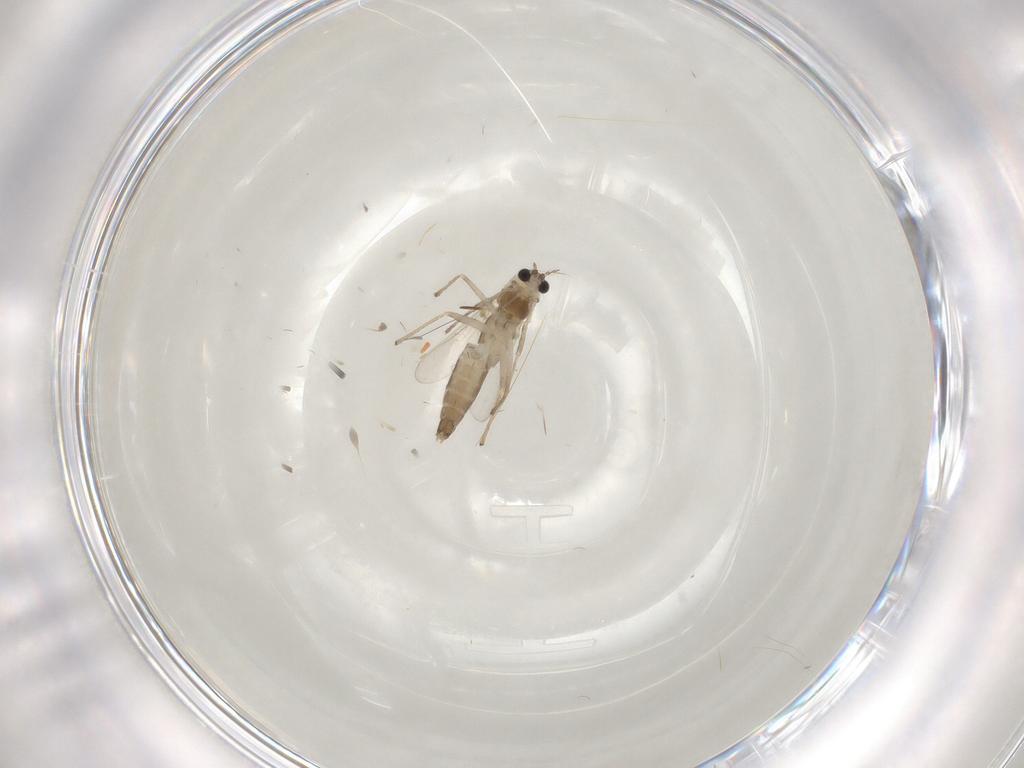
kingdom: Animalia
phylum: Arthropoda
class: Insecta
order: Diptera
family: Chironomidae
